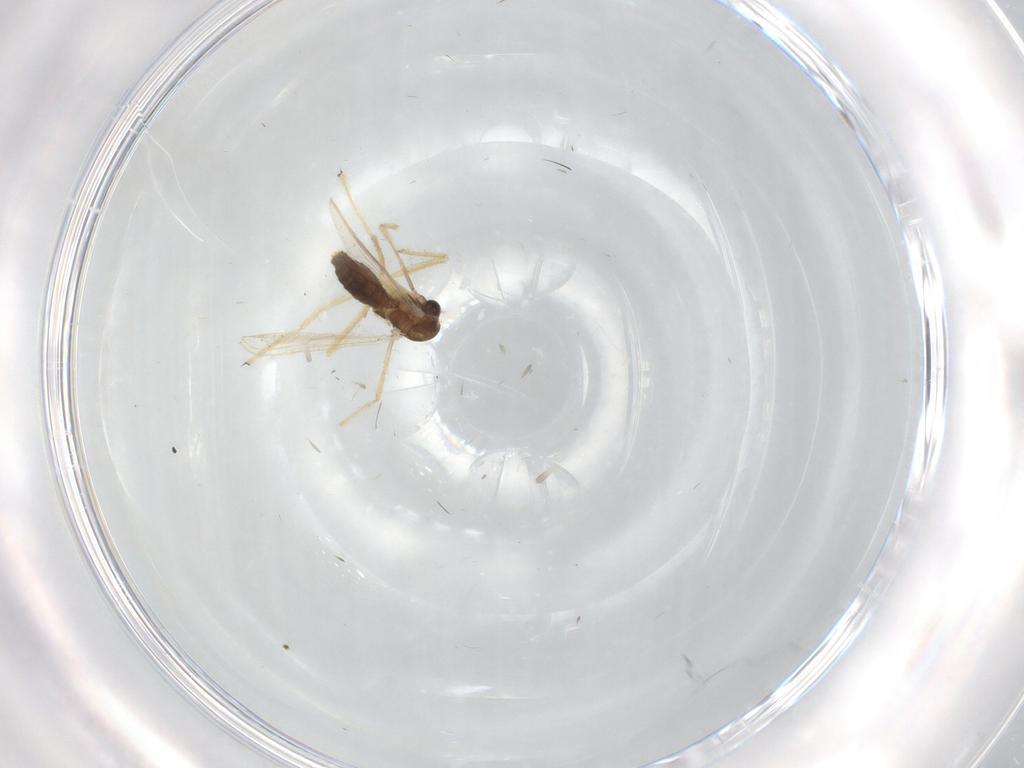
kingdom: Animalia
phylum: Arthropoda
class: Insecta
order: Diptera
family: Chironomidae
